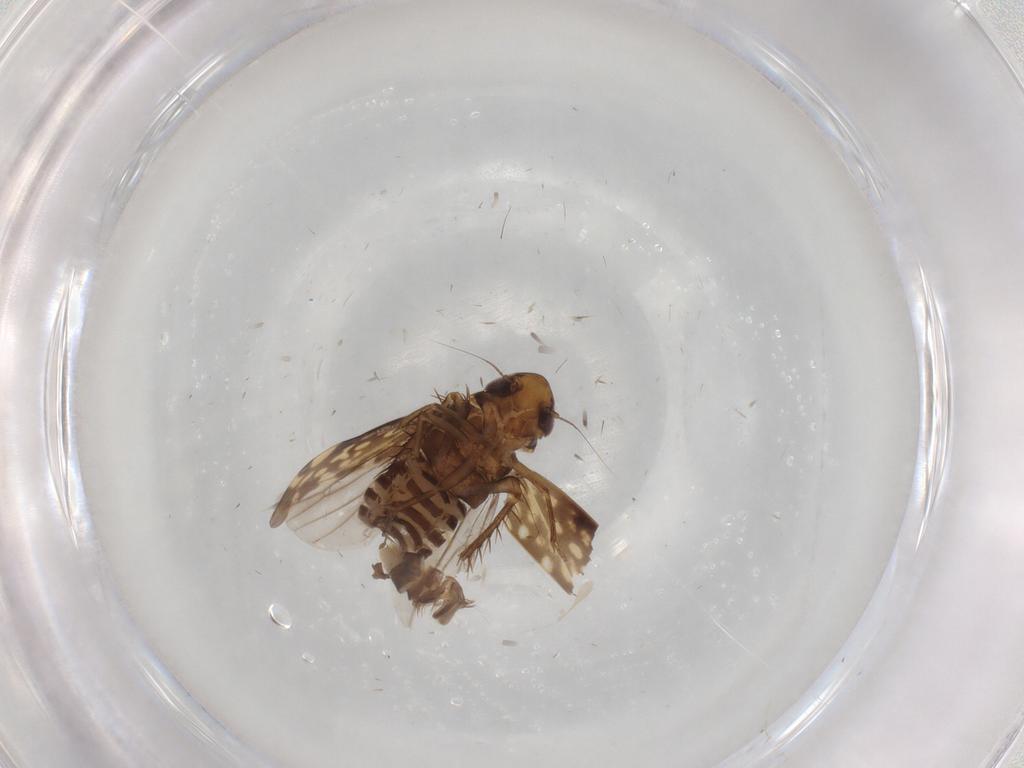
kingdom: Animalia
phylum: Arthropoda
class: Insecta
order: Hemiptera
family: Cicadellidae
